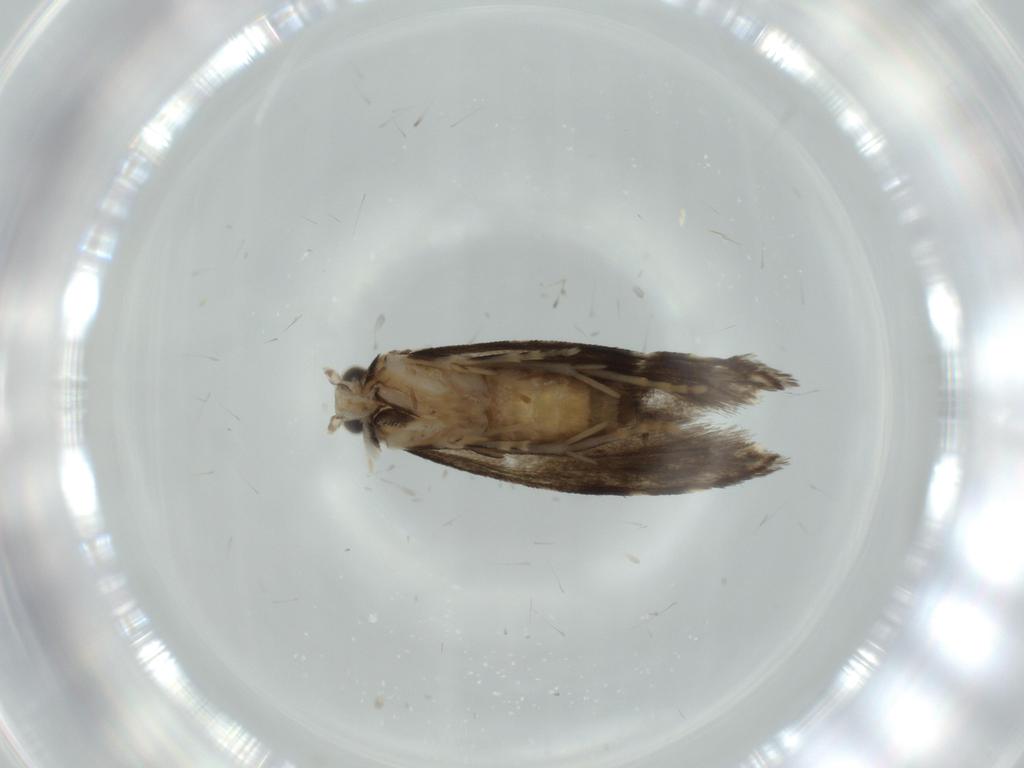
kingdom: Animalia
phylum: Arthropoda
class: Insecta
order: Lepidoptera
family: Tineidae
